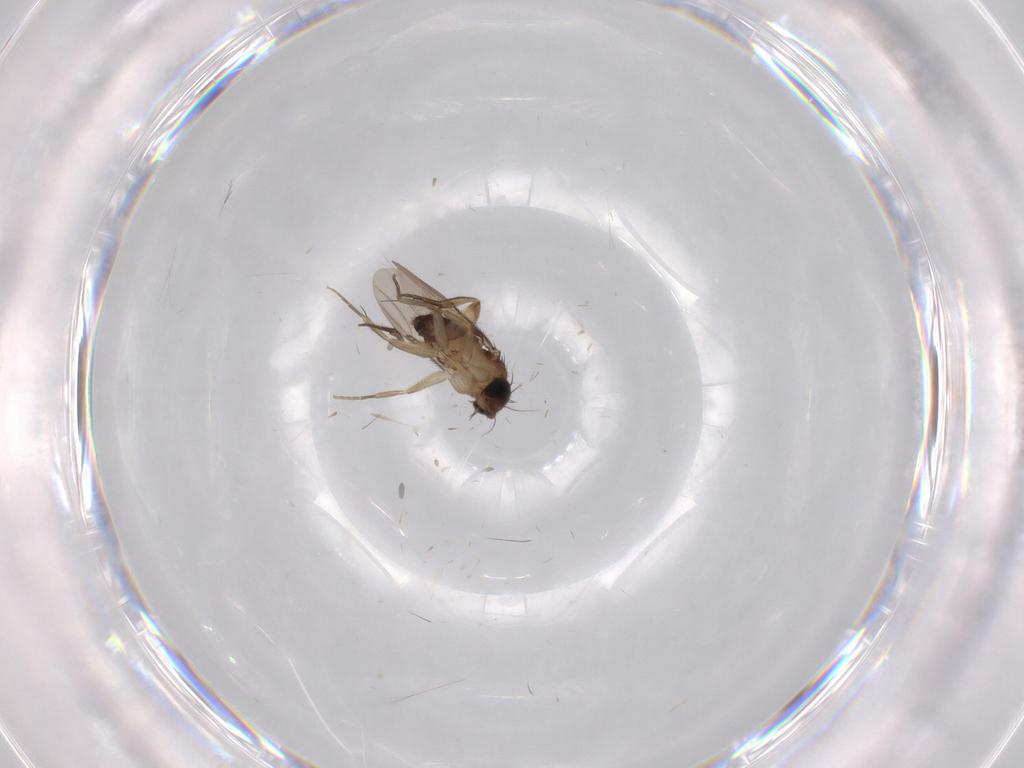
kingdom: Animalia
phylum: Arthropoda
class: Insecta
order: Diptera
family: Phoridae
